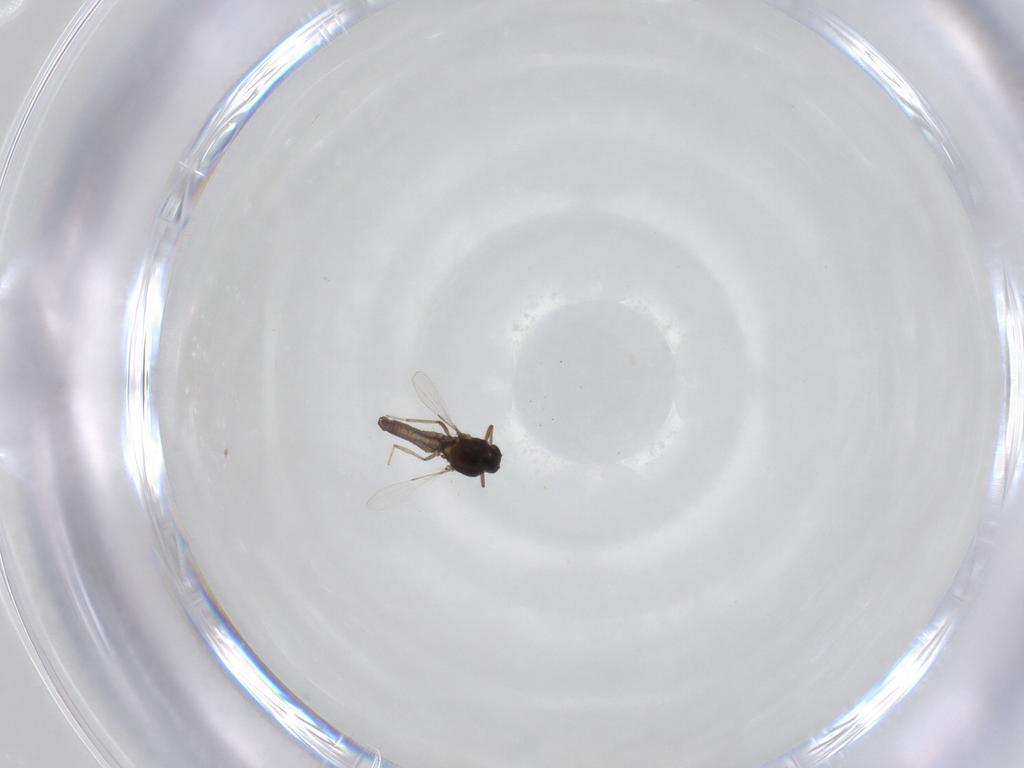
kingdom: Animalia
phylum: Arthropoda
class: Insecta
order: Diptera
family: Ceratopogonidae
